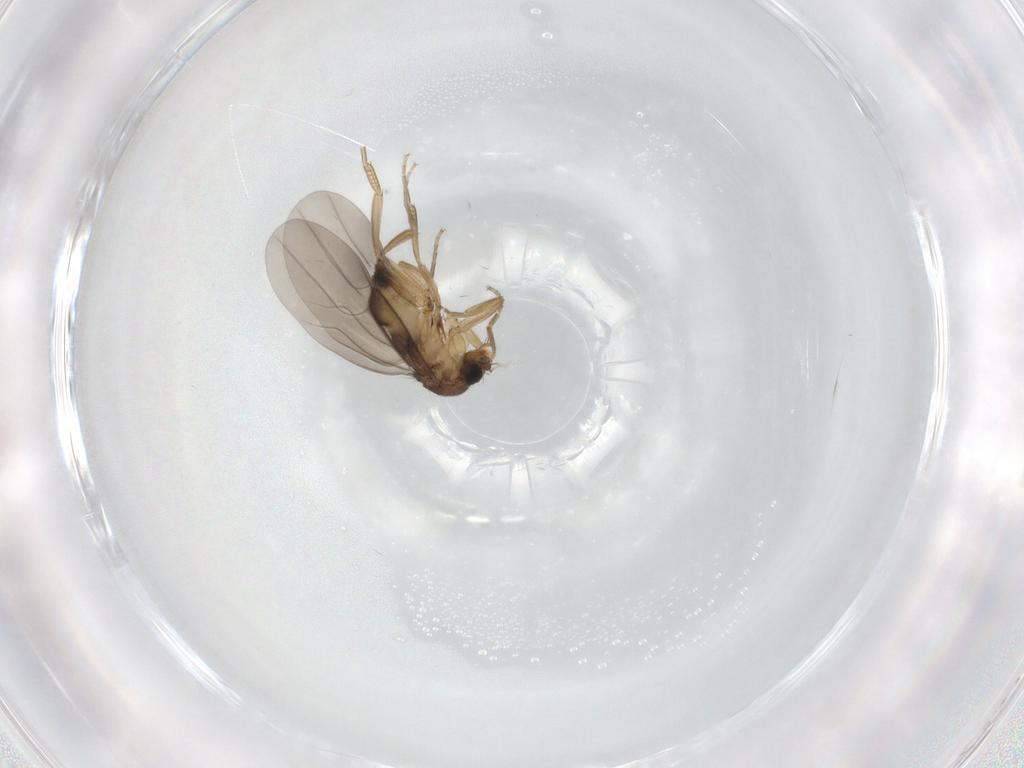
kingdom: Animalia
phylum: Arthropoda
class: Insecta
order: Diptera
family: Phoridae
